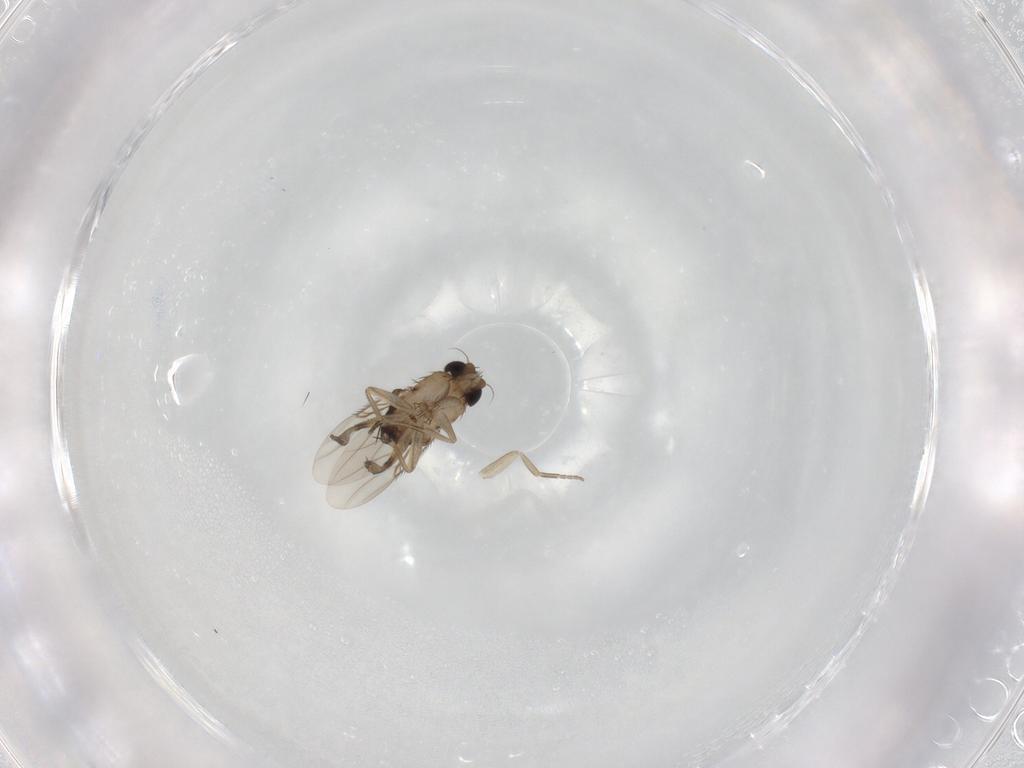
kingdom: Animalia
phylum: Arthropoda
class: Insecta
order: Diptera
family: Phoridae
